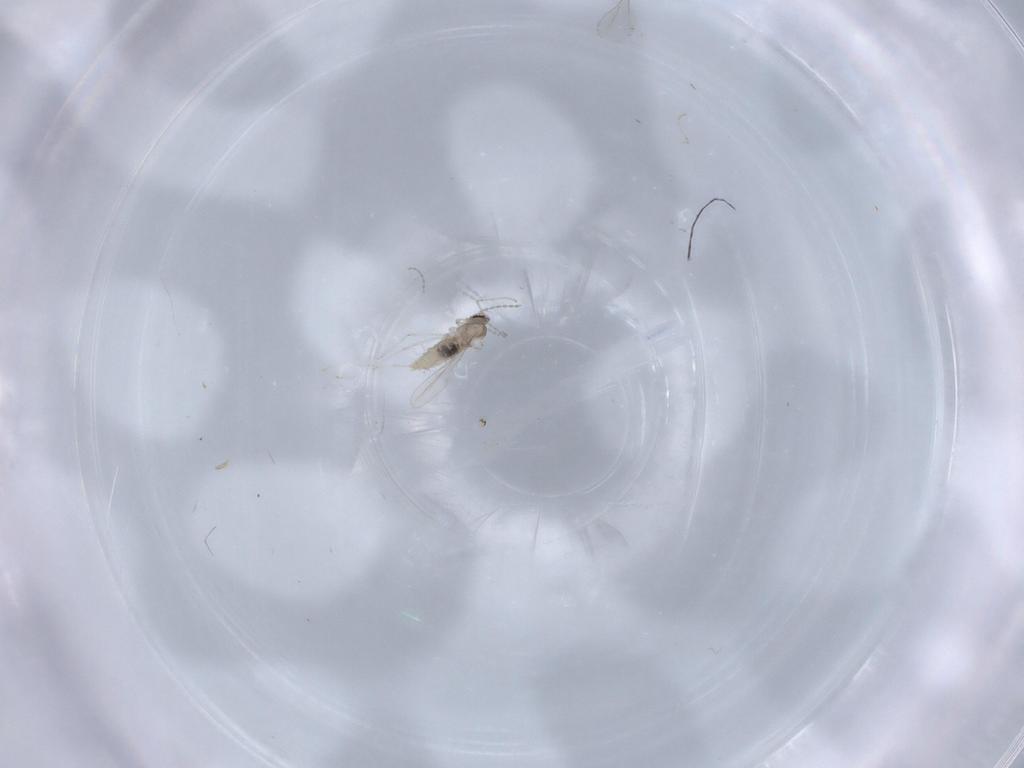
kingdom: Animalia
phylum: Arthropoda
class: Insecta
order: Diptera
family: Cecidomyiidae
